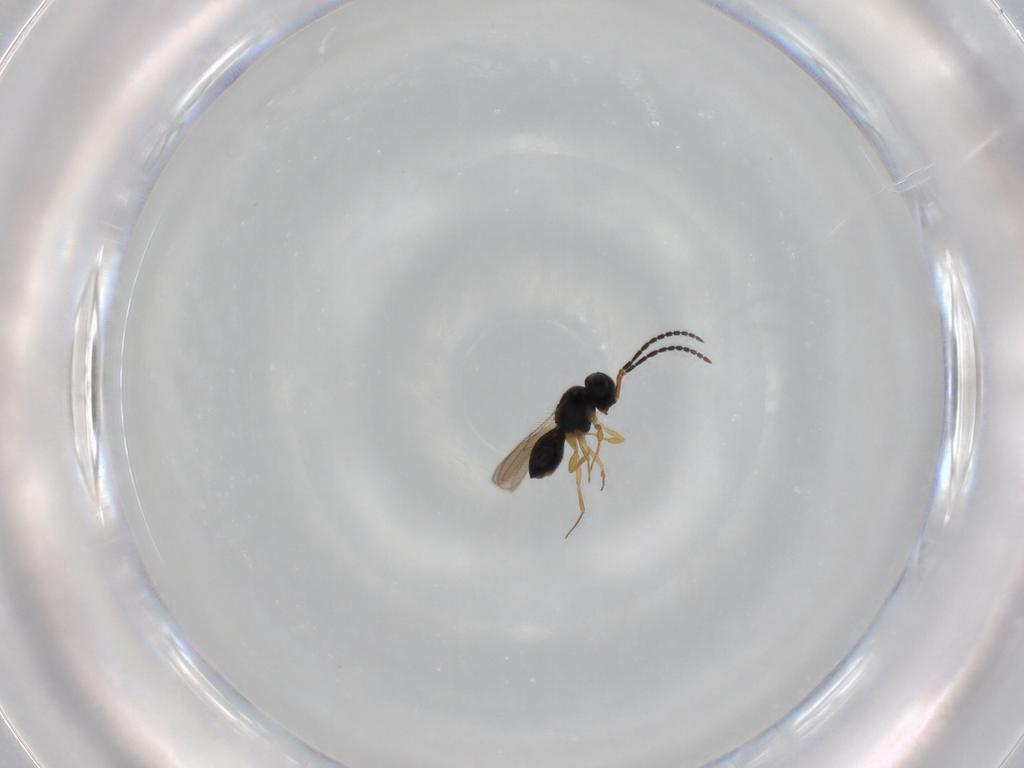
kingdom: Animalia
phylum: Arthropoda
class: Insecta
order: Hymenoptera
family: Scelionidae
